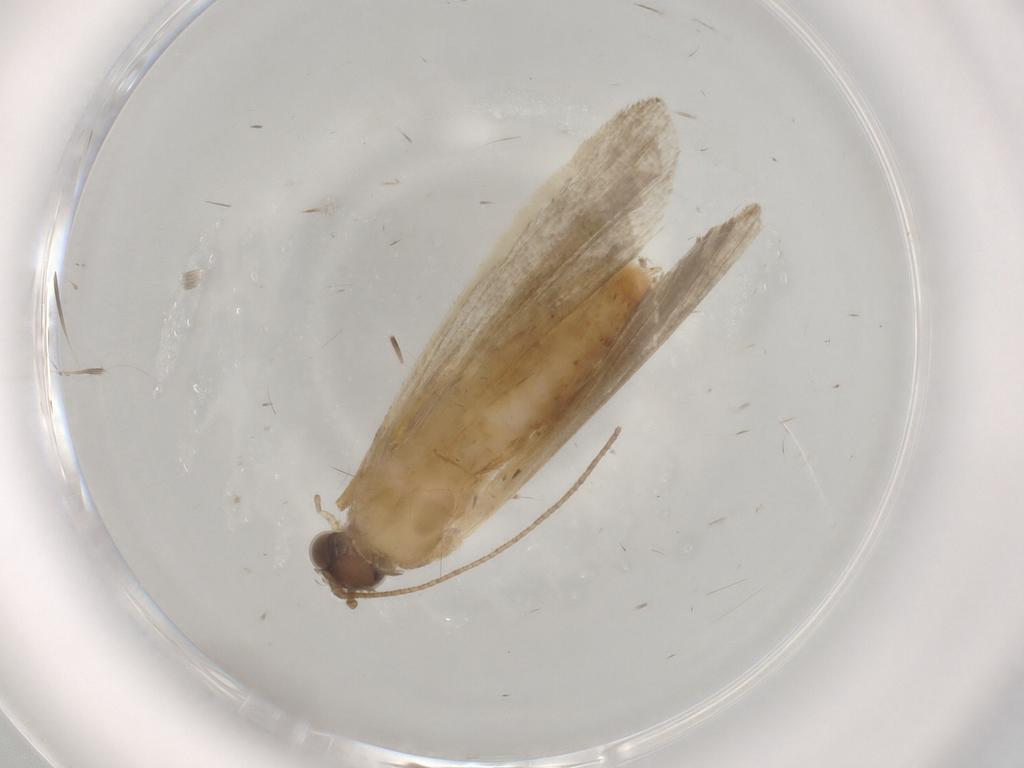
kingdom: Animalia
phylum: Arthropoda
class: Insecta
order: Lepidoptera
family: Noctuidae
